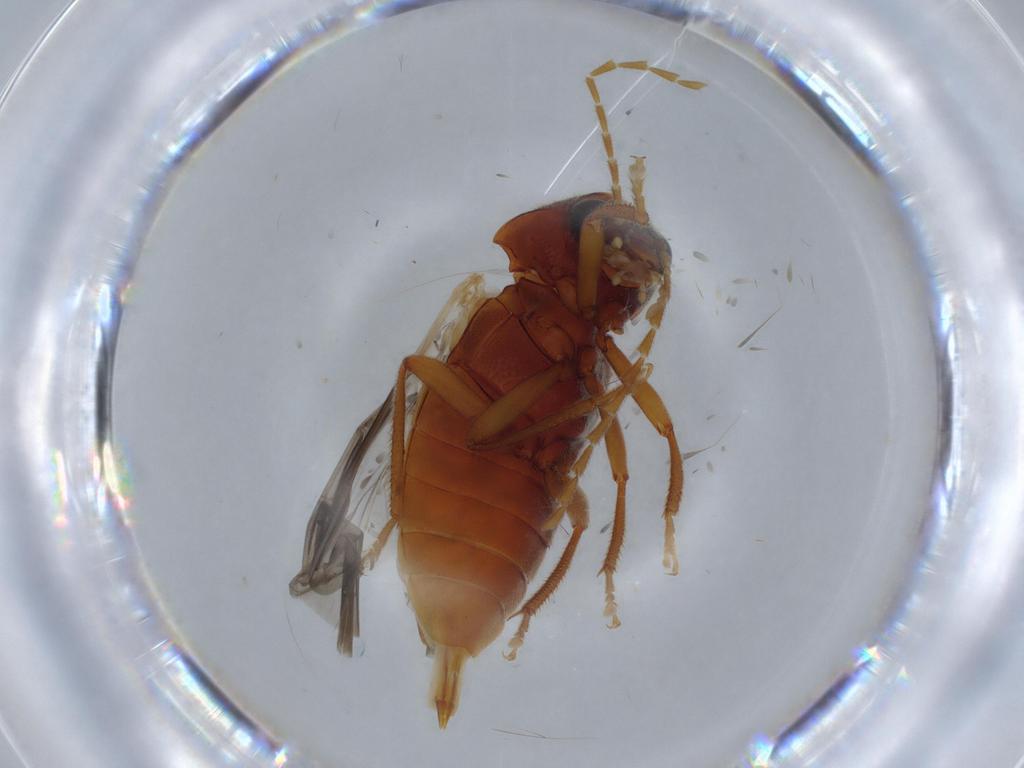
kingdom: Animalia
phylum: Arthropoda
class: Insecta
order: Coleoptera
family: Ptilodactylidae
